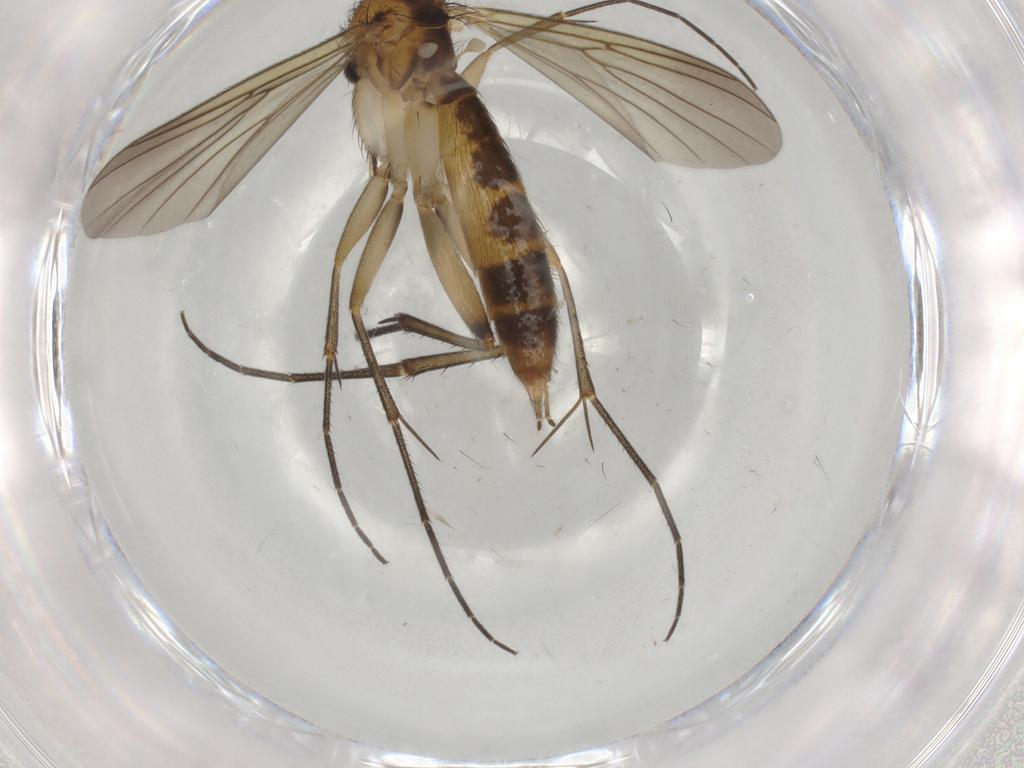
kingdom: Animalia
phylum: Arthropoda
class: Insecta
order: Diptera
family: Mycetophilidae
